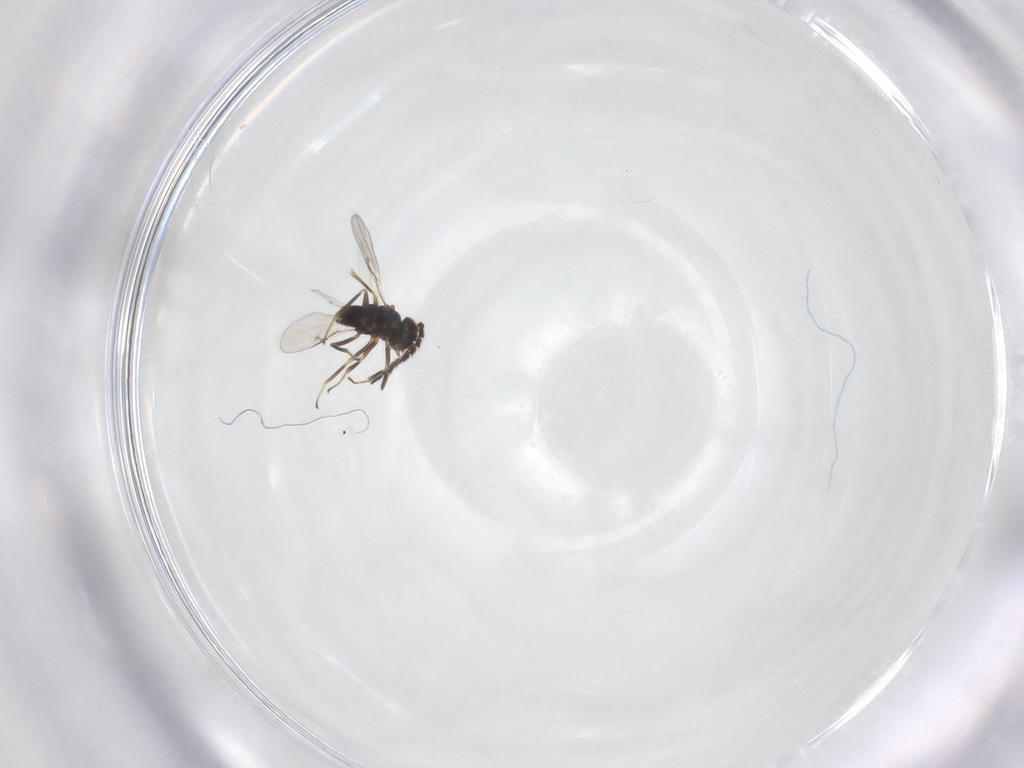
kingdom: Animalia
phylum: Arthropoda
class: Insecta
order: Hymenoptera
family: Encyrtidae
